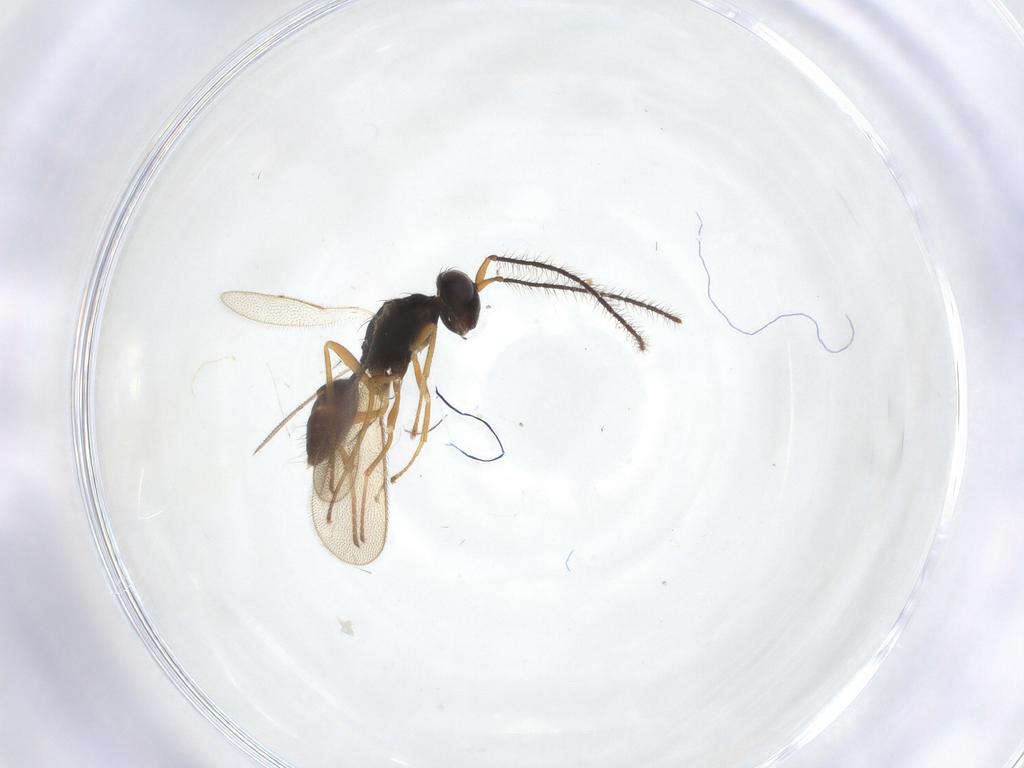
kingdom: Animalia
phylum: Arthropoda
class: Insecta
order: Hymenoptera
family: Eulophidae
